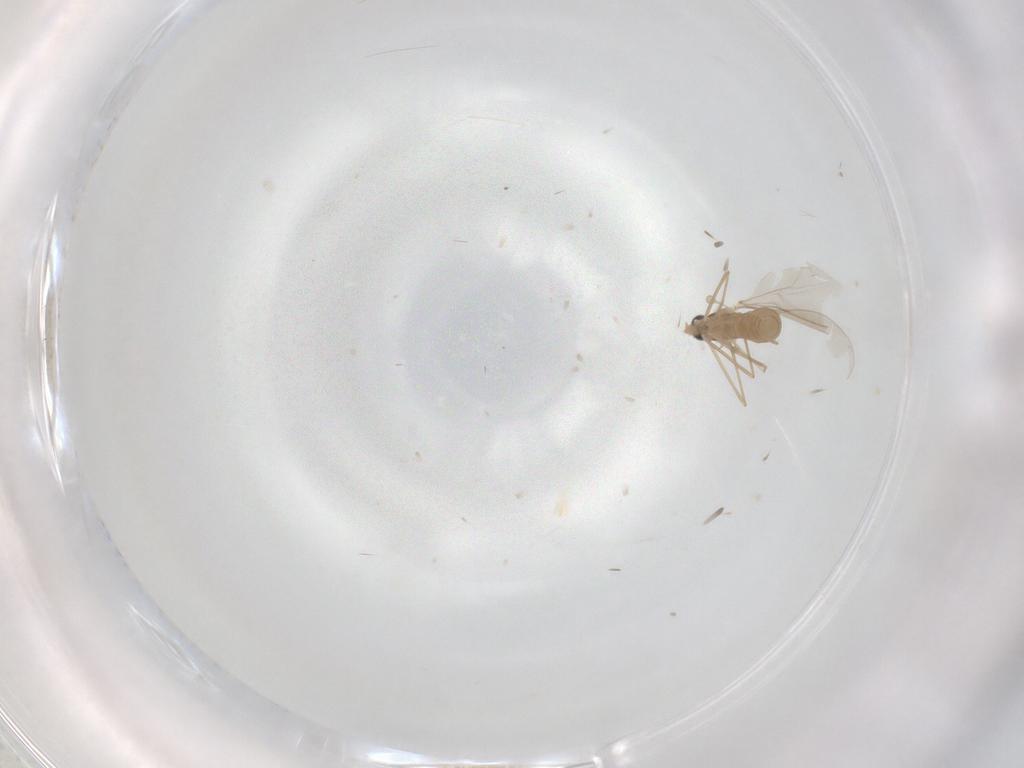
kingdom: Animalia
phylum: Arthropoda
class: Insecta
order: Diptera
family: Cecidomyiidae
